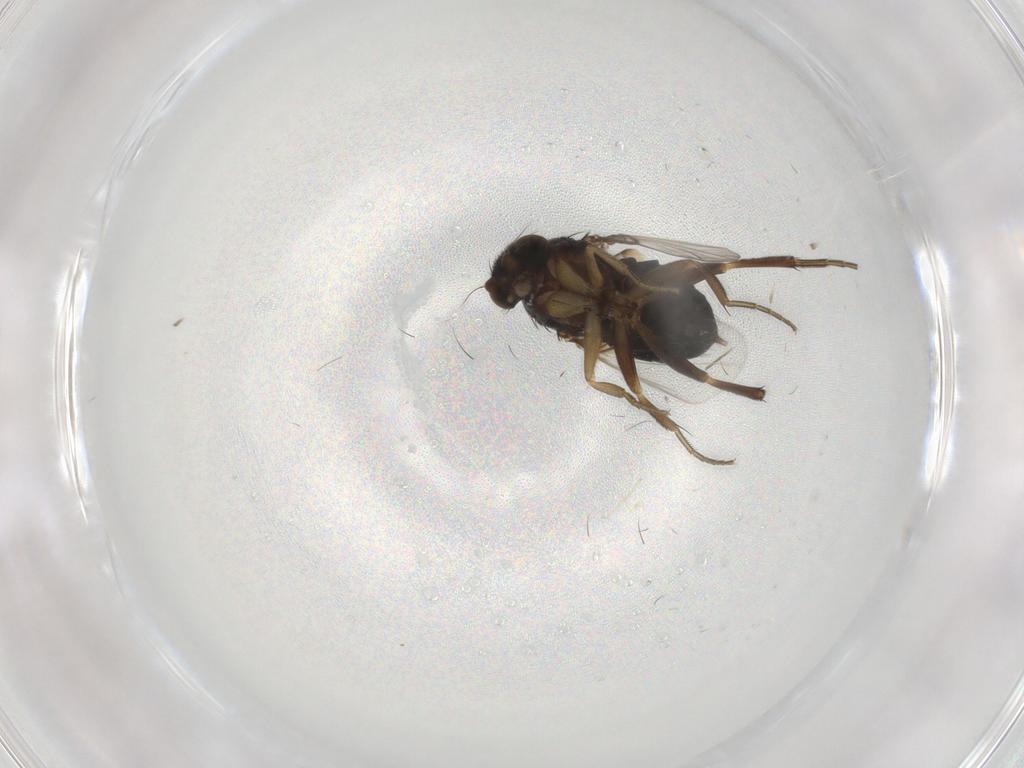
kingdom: Animalia
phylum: Arthropoda
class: Insecta
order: Diptera
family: Phoridae
